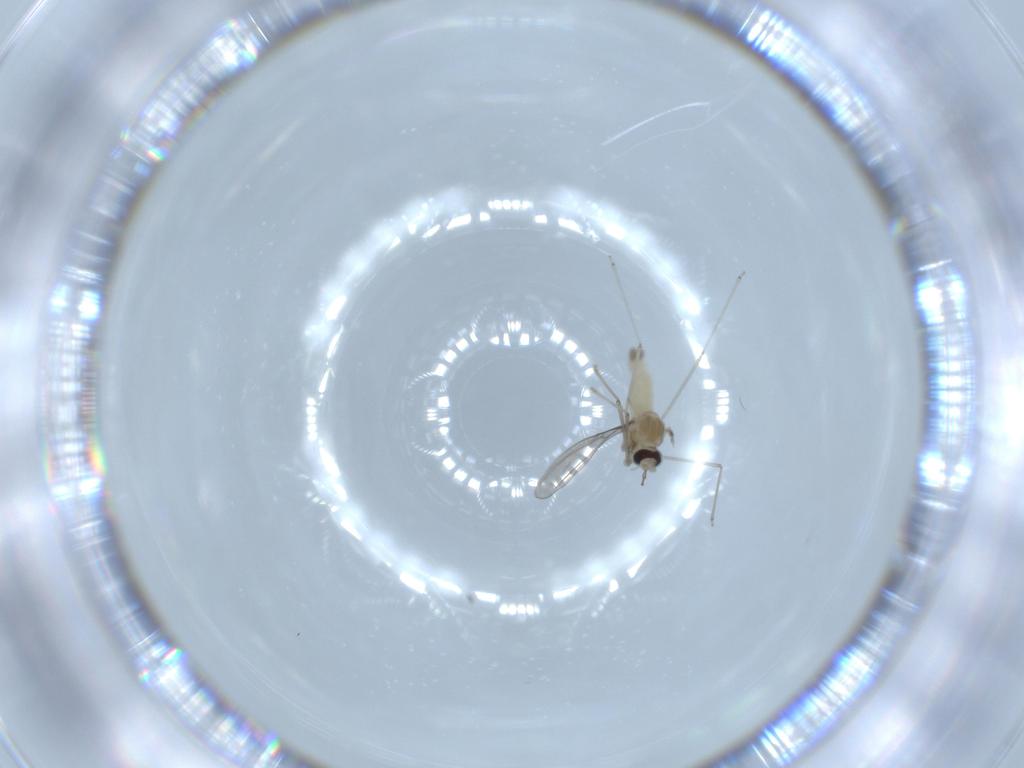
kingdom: Animalia
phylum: Arthropoda
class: Insecta
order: Diptera
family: Cecidomyiidae
